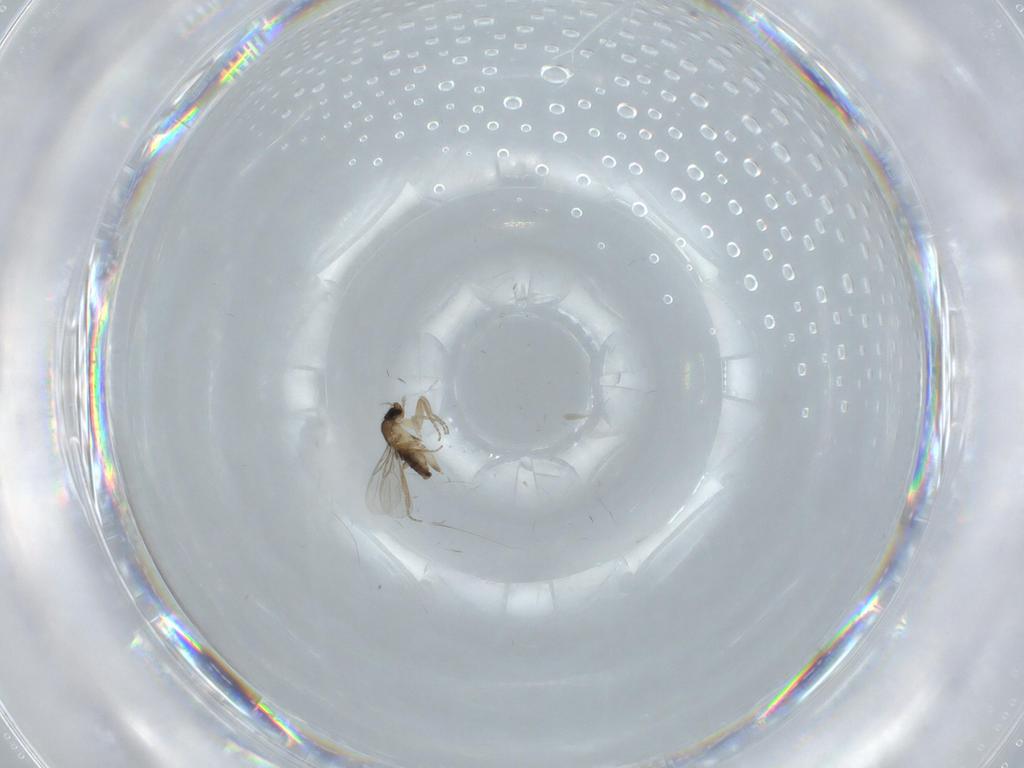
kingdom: Animalia
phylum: Arthropoda
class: Insecta
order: Diptera
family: Phoridae
